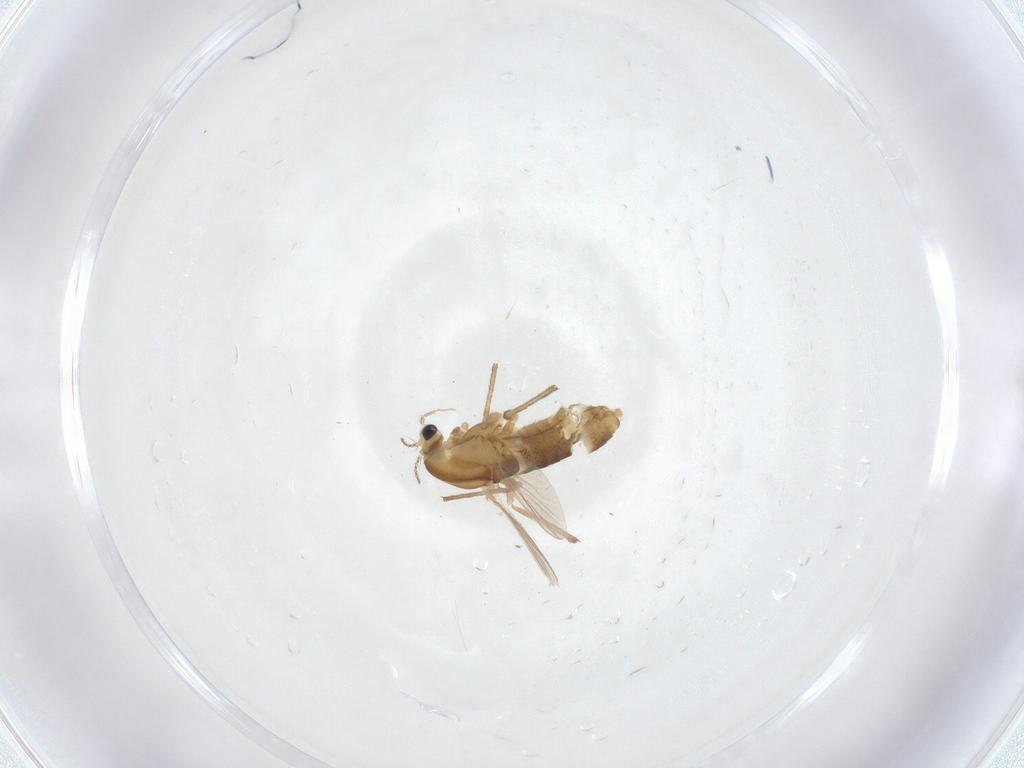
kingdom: Animalia
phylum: Arthropoda
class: Insecta
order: Diptera
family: Chironomidae
